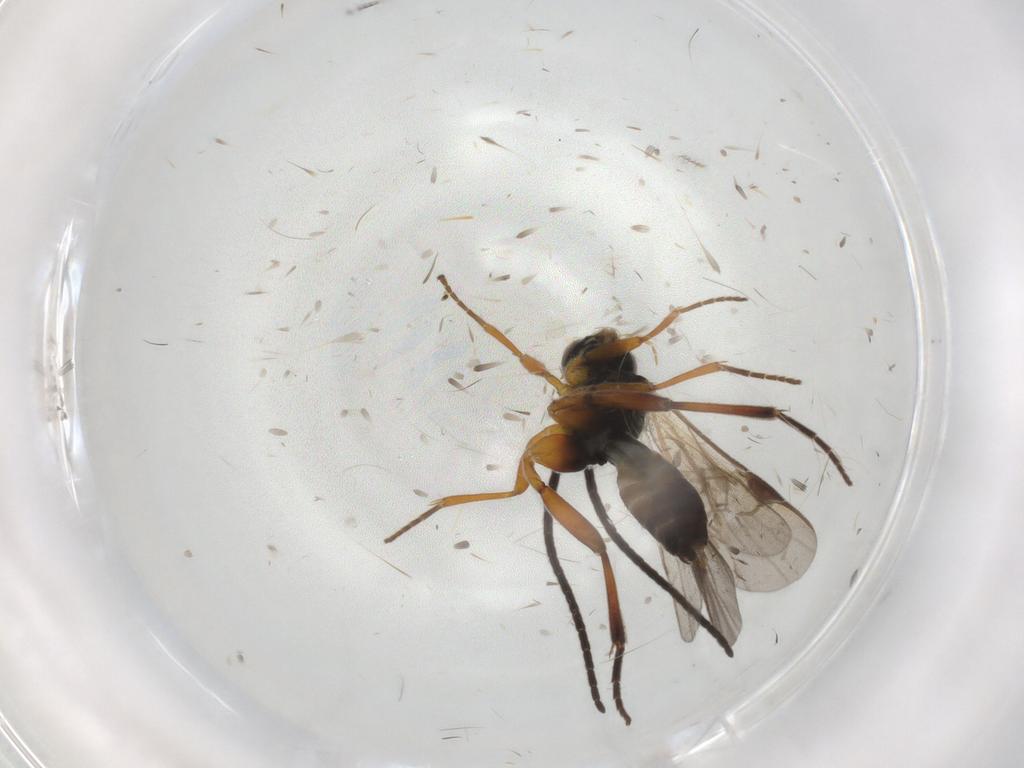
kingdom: Animalia
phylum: Arthropoda
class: Insecta
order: Hymenoptera
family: Braconidae
